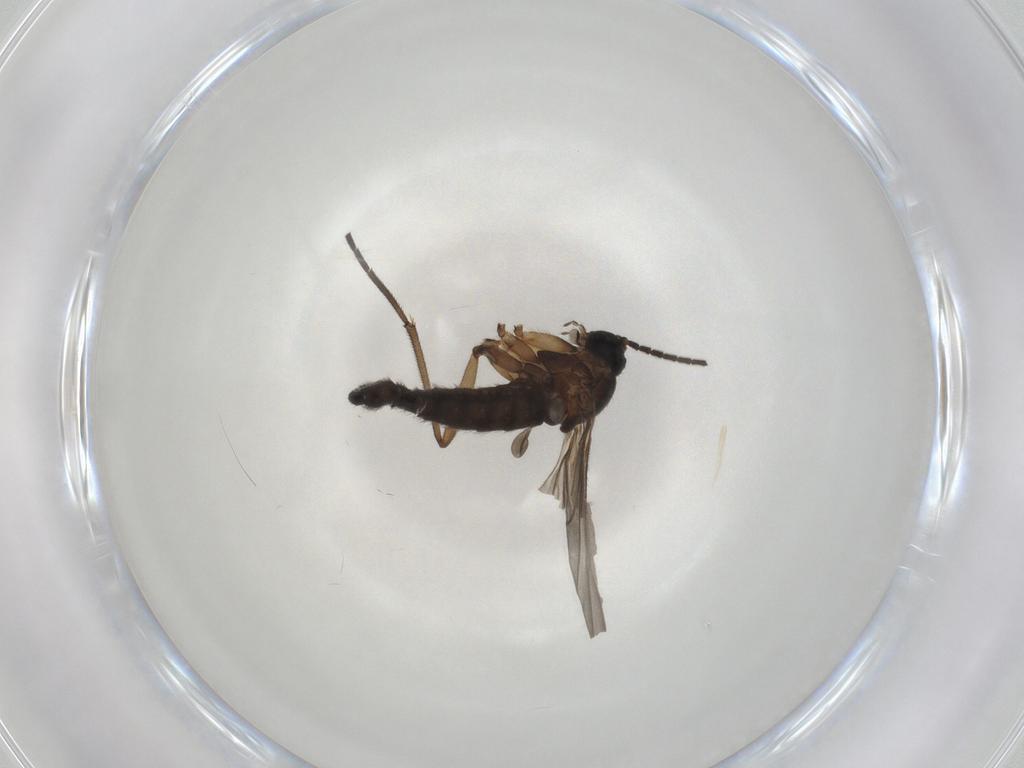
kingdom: Animalia
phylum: Arthropoda
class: Insecta
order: Diptera
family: Sciaridae
